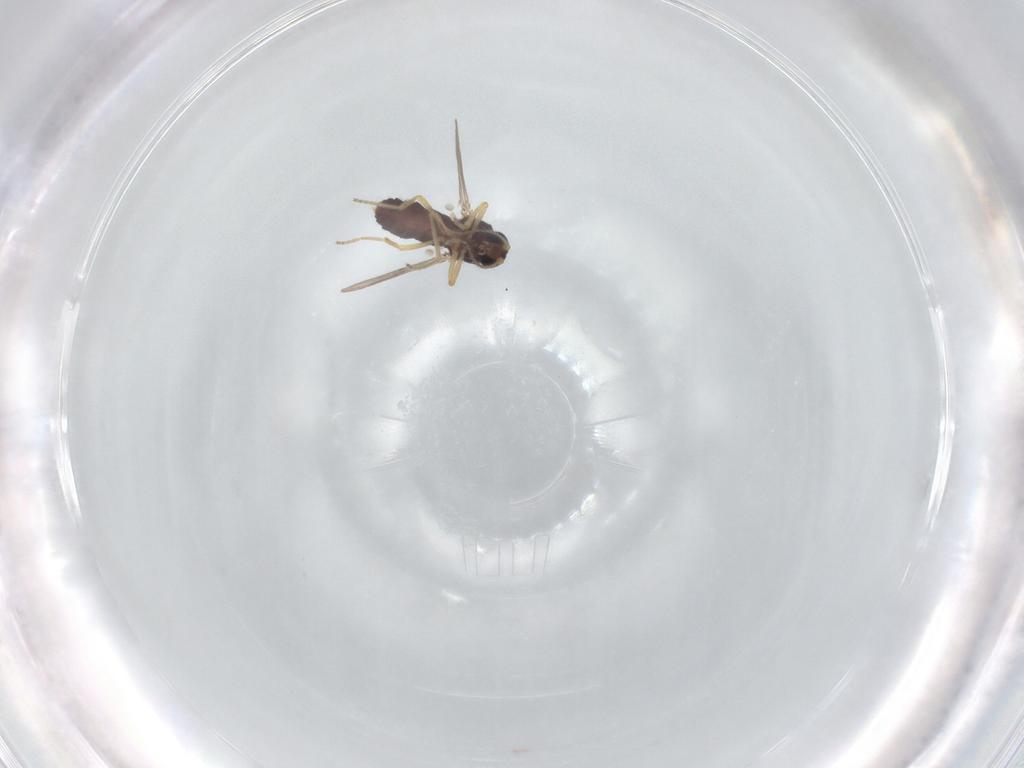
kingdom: Animalia
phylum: Arthropoda
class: Insecta
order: Diptera
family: Ceratopogonidae
